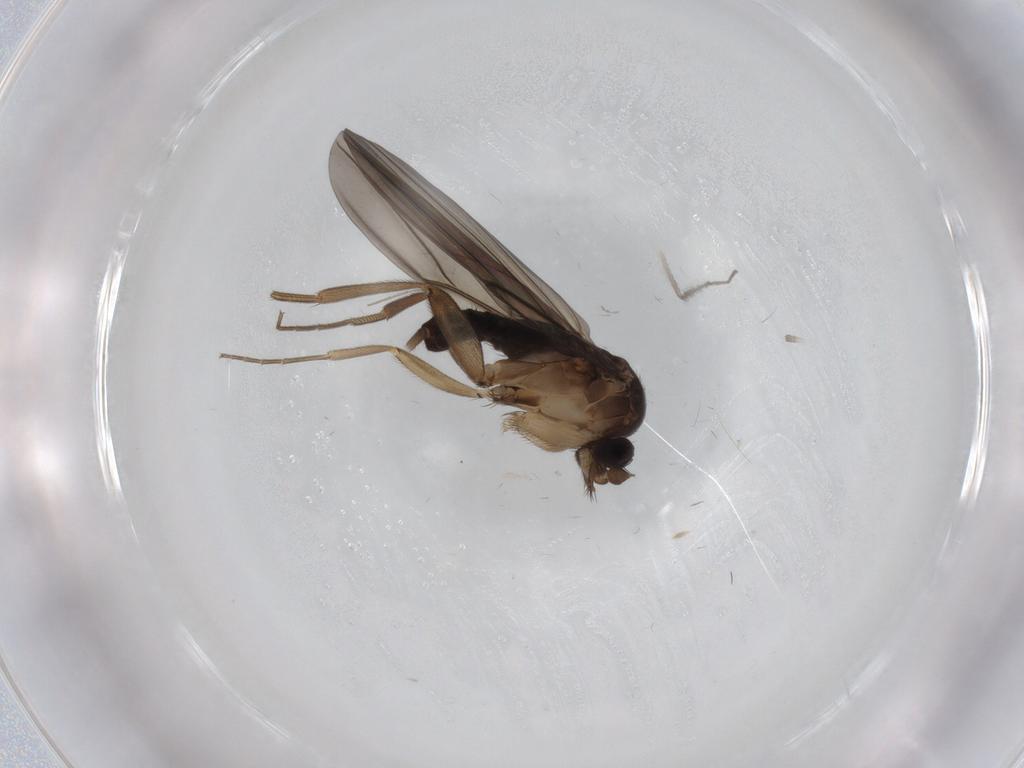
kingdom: Animalia
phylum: Arthropoda
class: Insecta
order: Diptera
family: Phoridae
